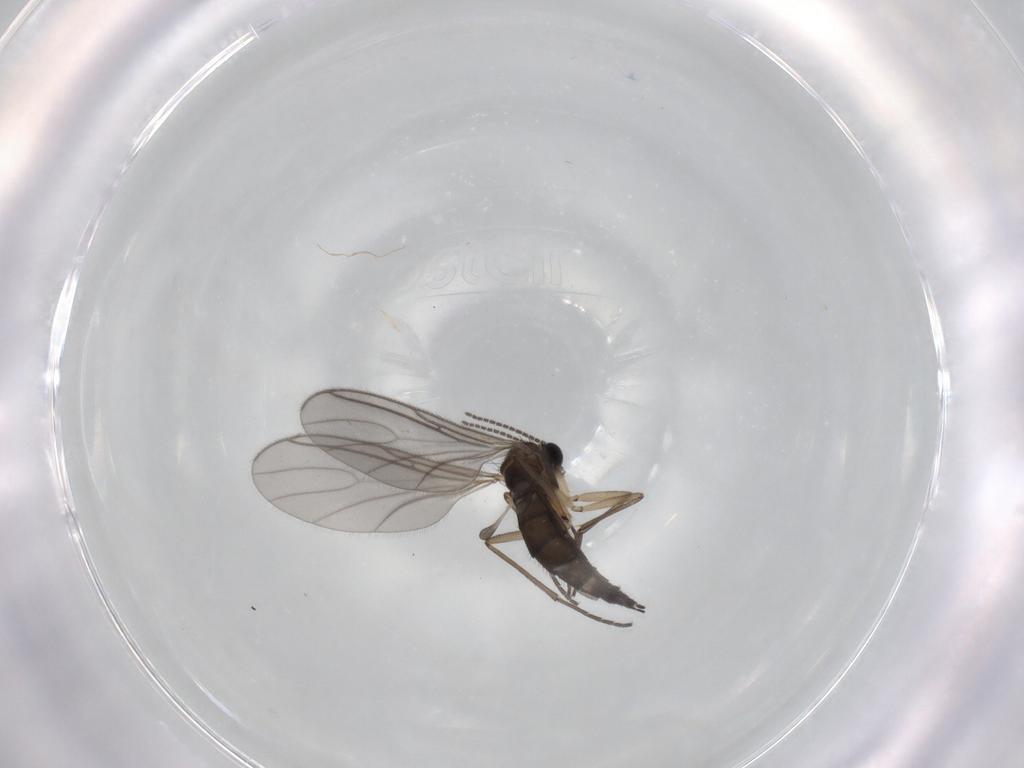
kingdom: Animalia
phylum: Arthropoda
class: Insecta
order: Diptera
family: Sciaridae
